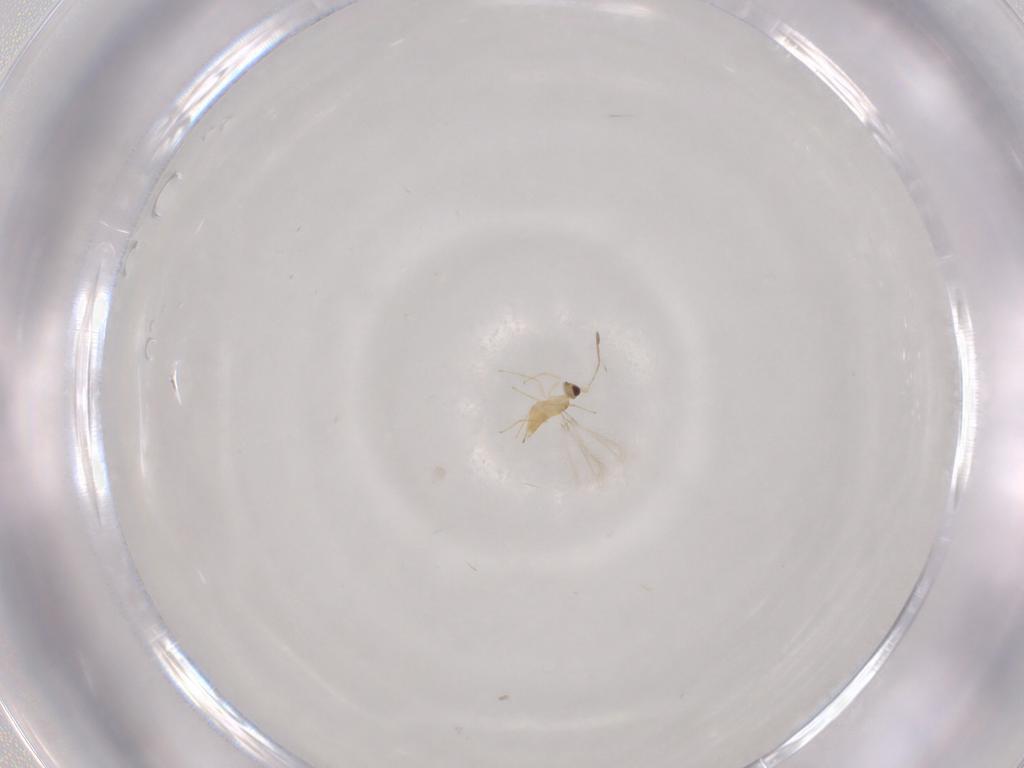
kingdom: Animalia
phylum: Arthropoda
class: Insecta
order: Hymenoptera
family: Mymaridae
